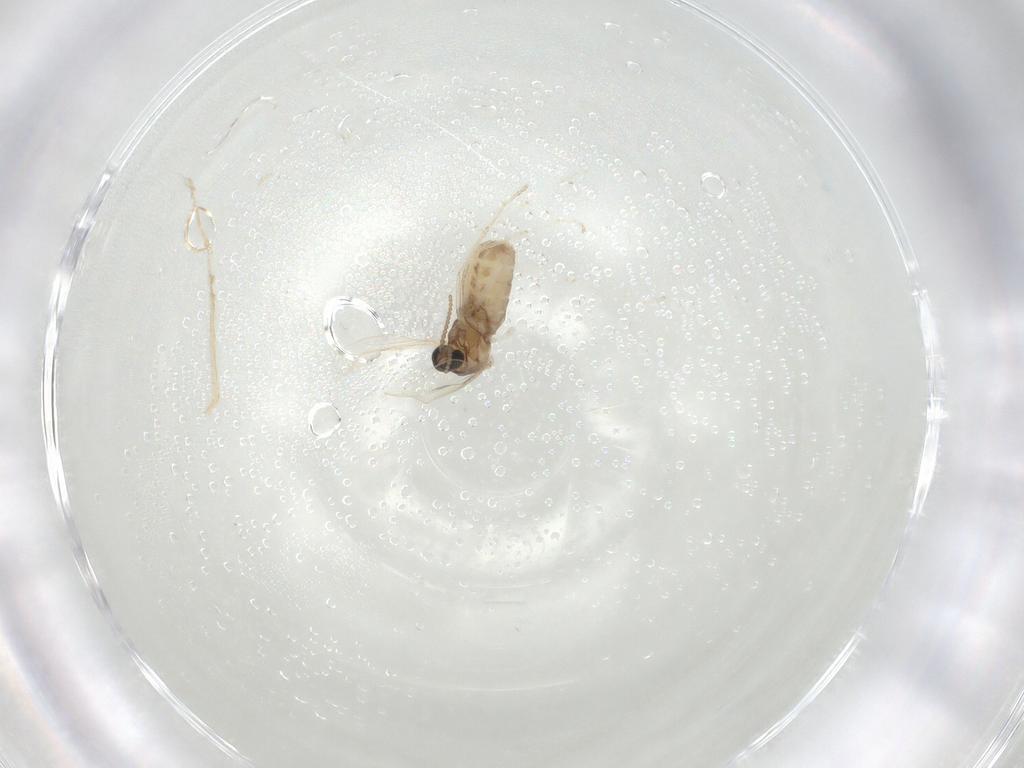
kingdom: Animalia
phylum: Arthropoda
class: Insecta
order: Diptera
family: Cecidomyiidae
